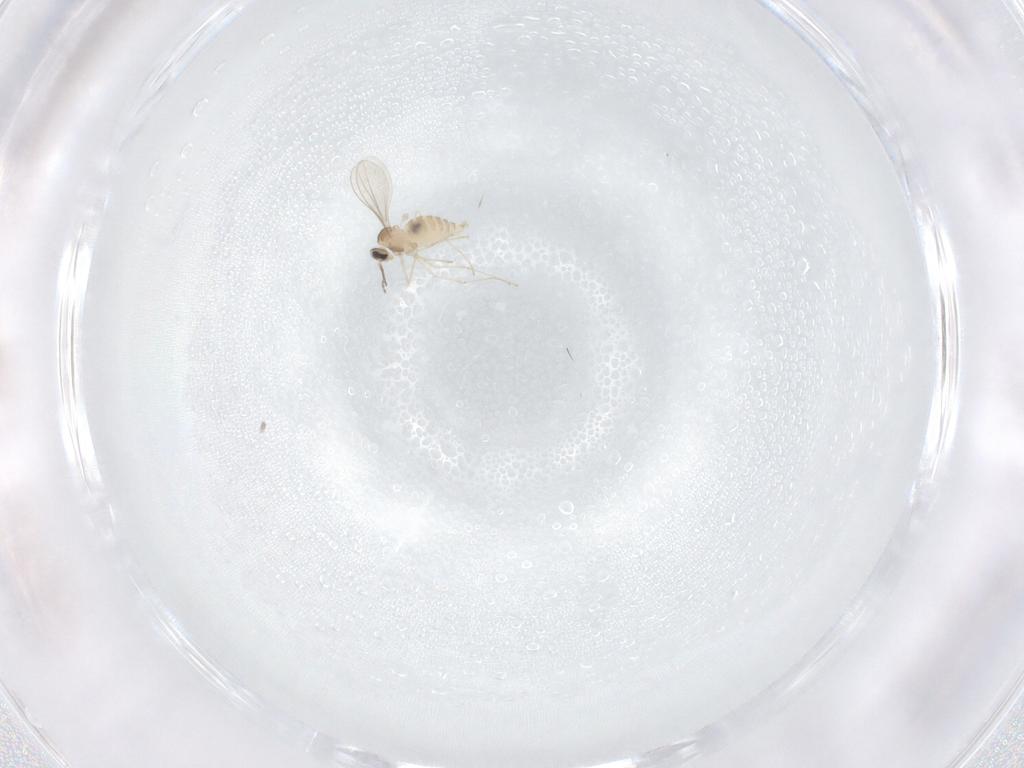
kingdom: Animalia
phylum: Arthropoda
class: Insecta
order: Diptera
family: Cecidomyiidae
